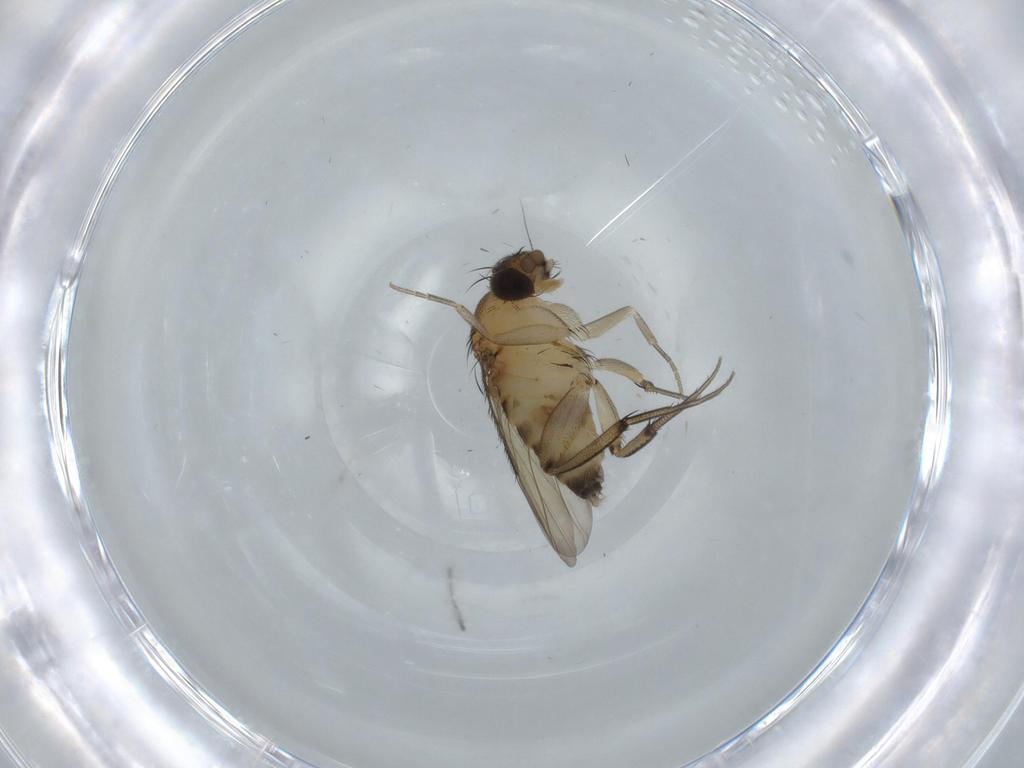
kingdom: Animalia
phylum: Arthropoda
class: Insecta
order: Diptera
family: Phoridae
